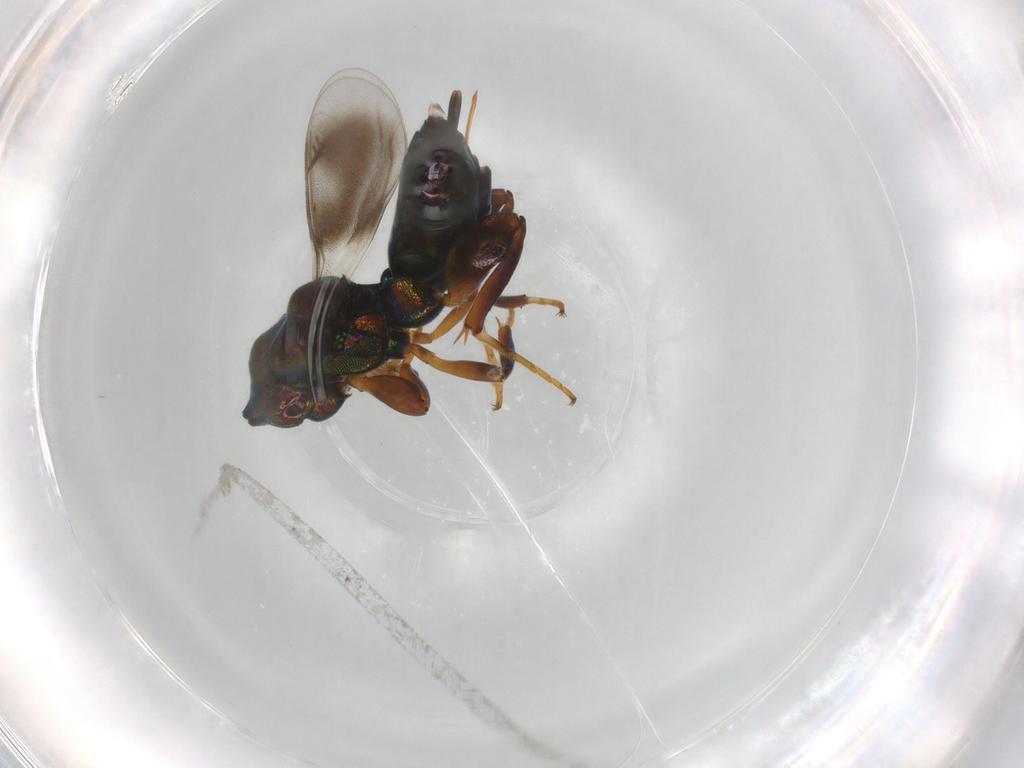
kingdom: Animalia
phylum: Arthropoda
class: Insecta
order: Hymenoptera
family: Eupelmidae
